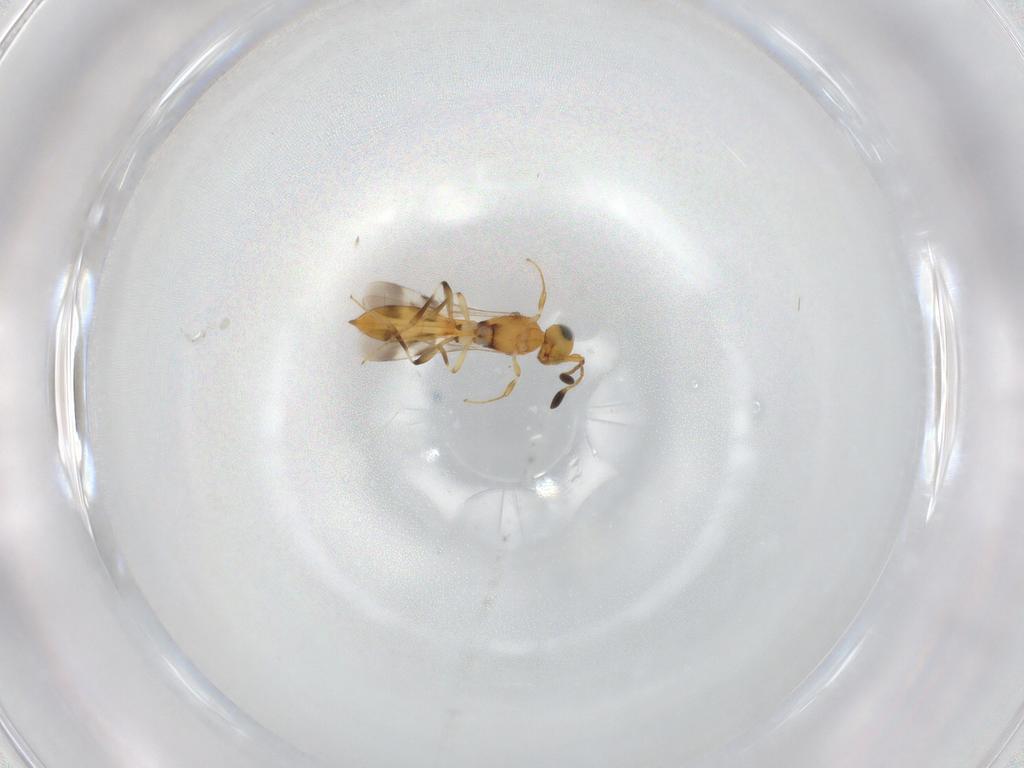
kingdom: Animalia
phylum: Arthropoda
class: Insecta
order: Hymenoptera
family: Scelionidae
